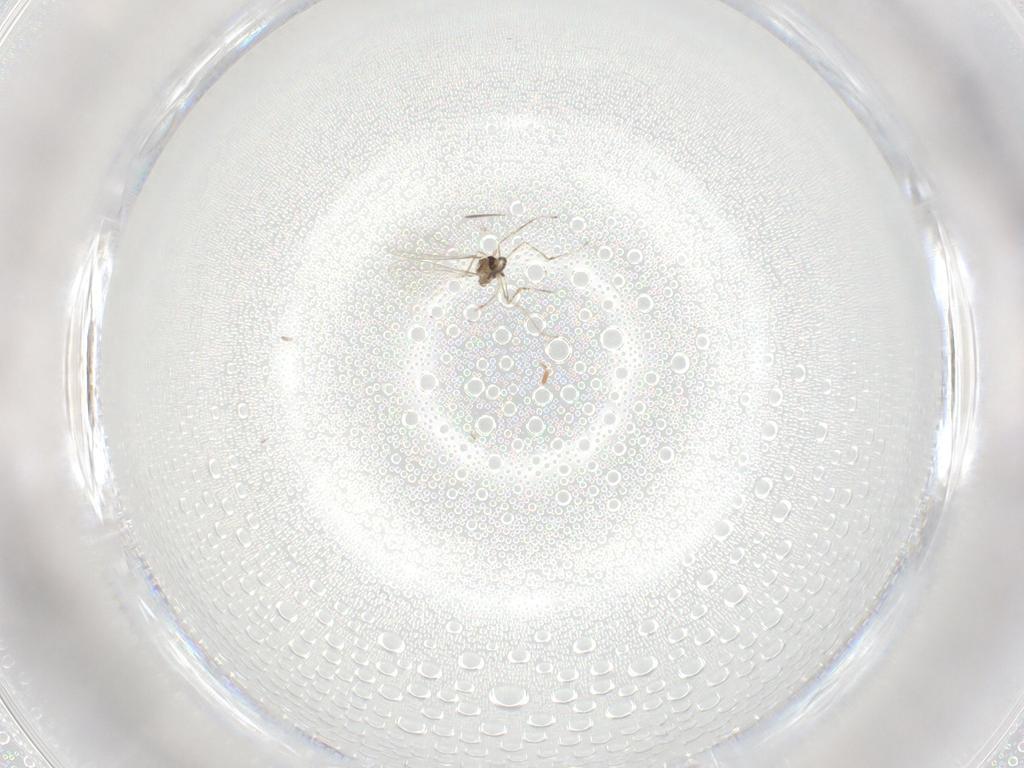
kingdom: Animalia
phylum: Arthropoda
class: Insecta
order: Diptera
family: Cecidomyiidae
